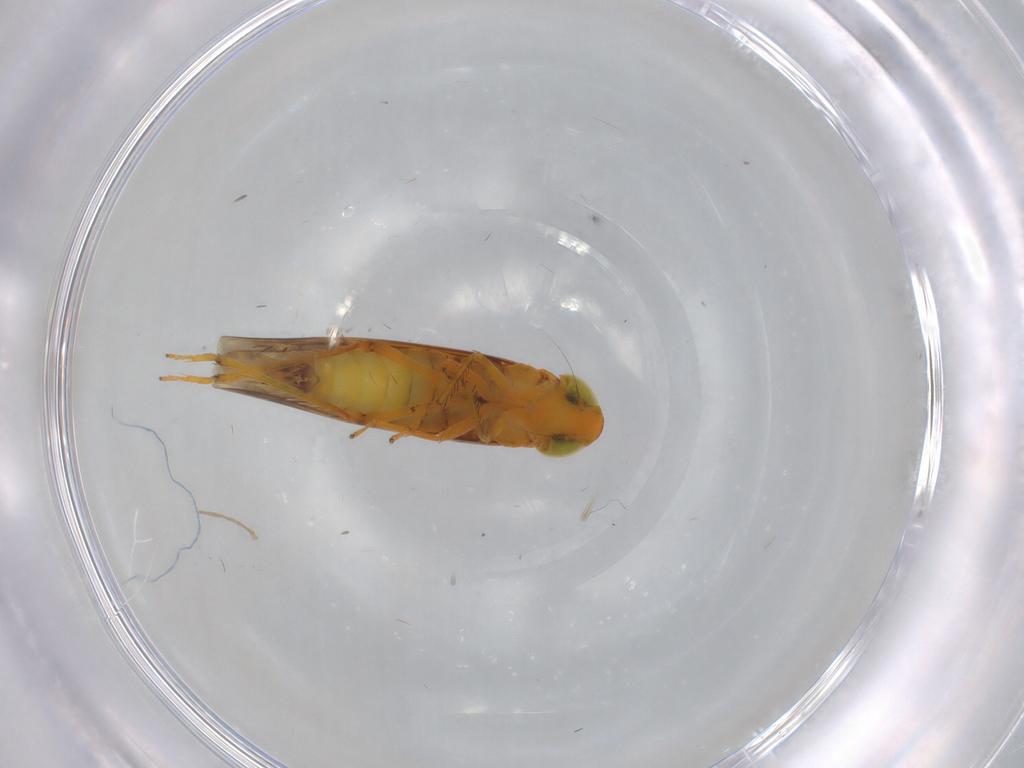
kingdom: Animalia
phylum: Arthropoda
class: Insecta
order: Hemiptera
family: Cicadellidae
